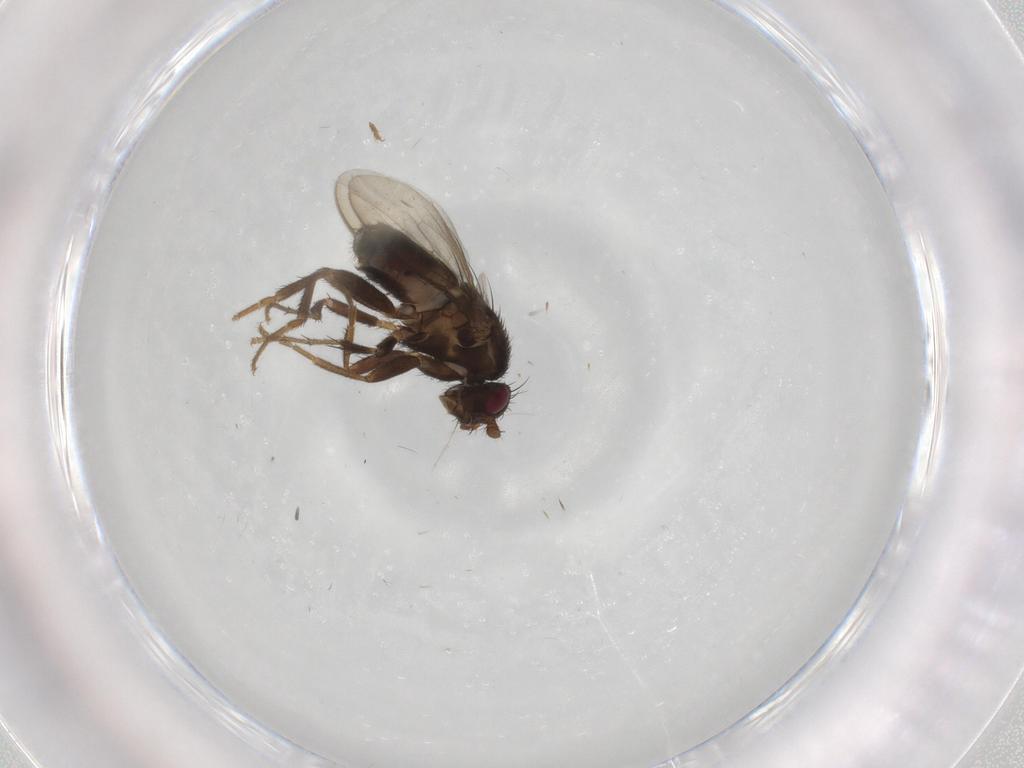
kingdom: Animalia
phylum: Arthropoda
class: Insecta
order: Diptera
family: Sphaeroceridae
